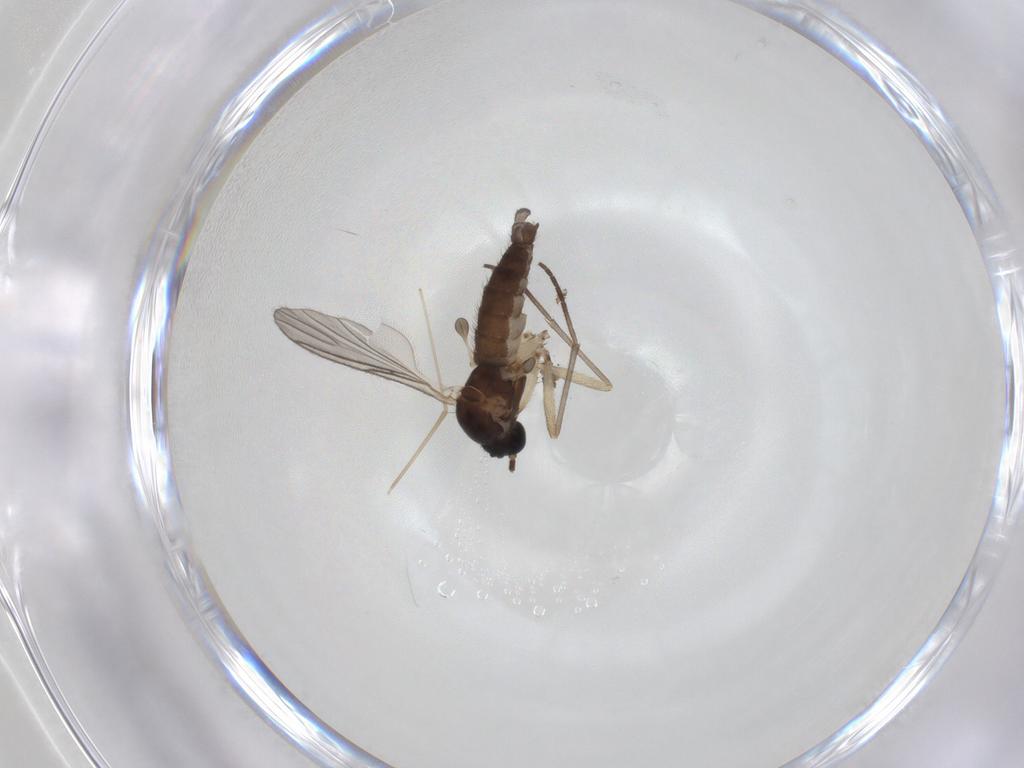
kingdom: Animalia
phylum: Arthropoda
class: Insecta
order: Diptera
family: Sciaridae
